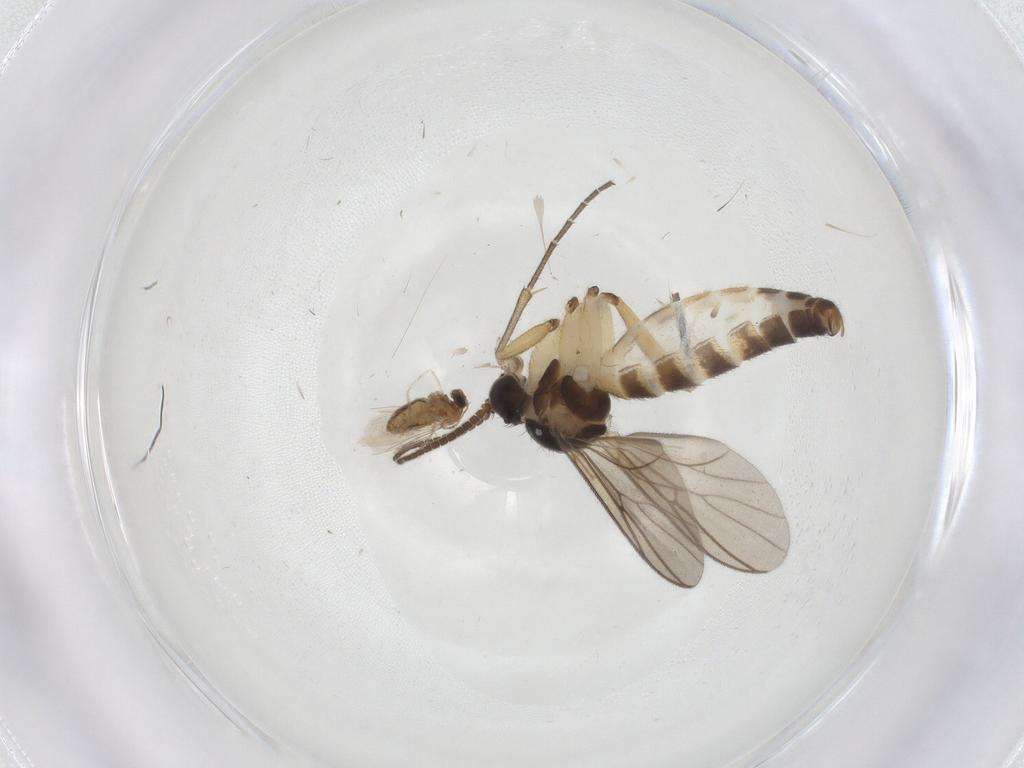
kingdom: Animalia
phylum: Arthropoda
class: Insecta
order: Diptera
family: Mycetophilidae
